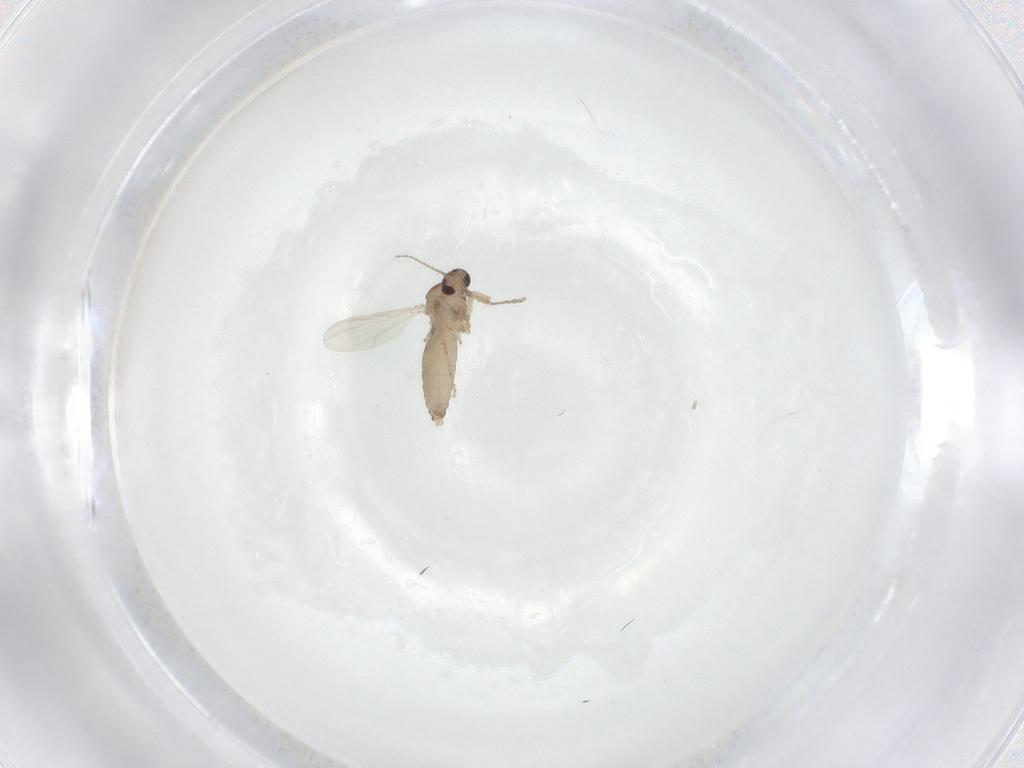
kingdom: Animalia
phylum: Arthropoda
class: Insecta
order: Diptera
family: Ceratopogonidae
